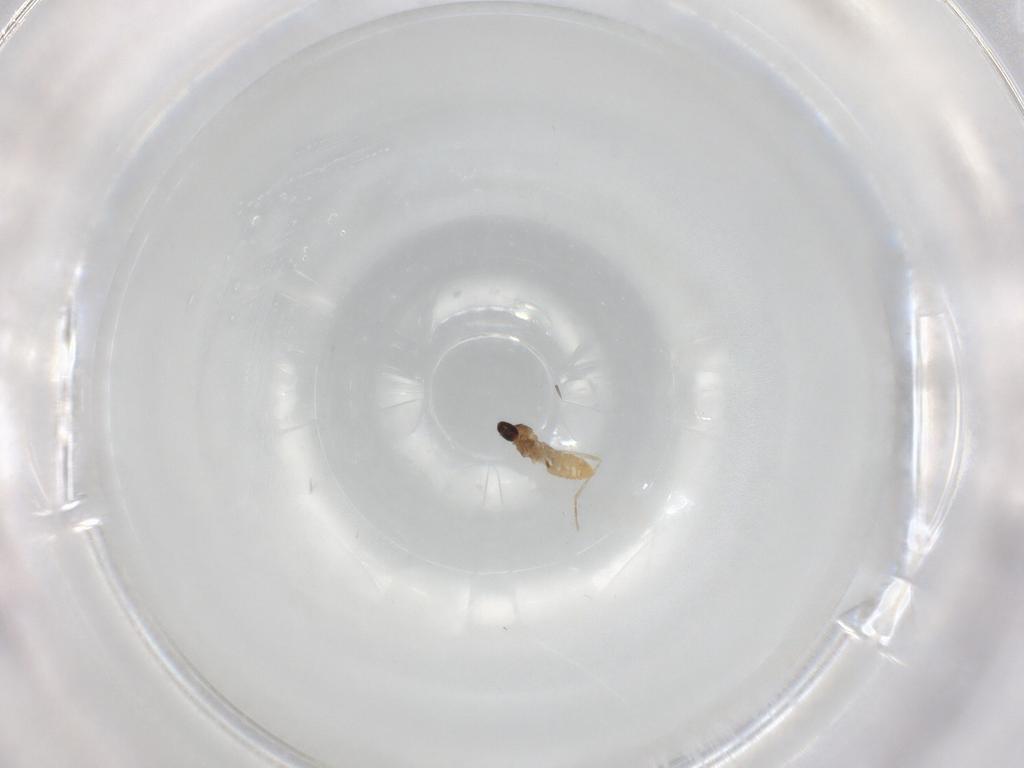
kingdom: Animalia
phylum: Arthropoda
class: Insecta
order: Diptera
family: Cecidomyiidae
